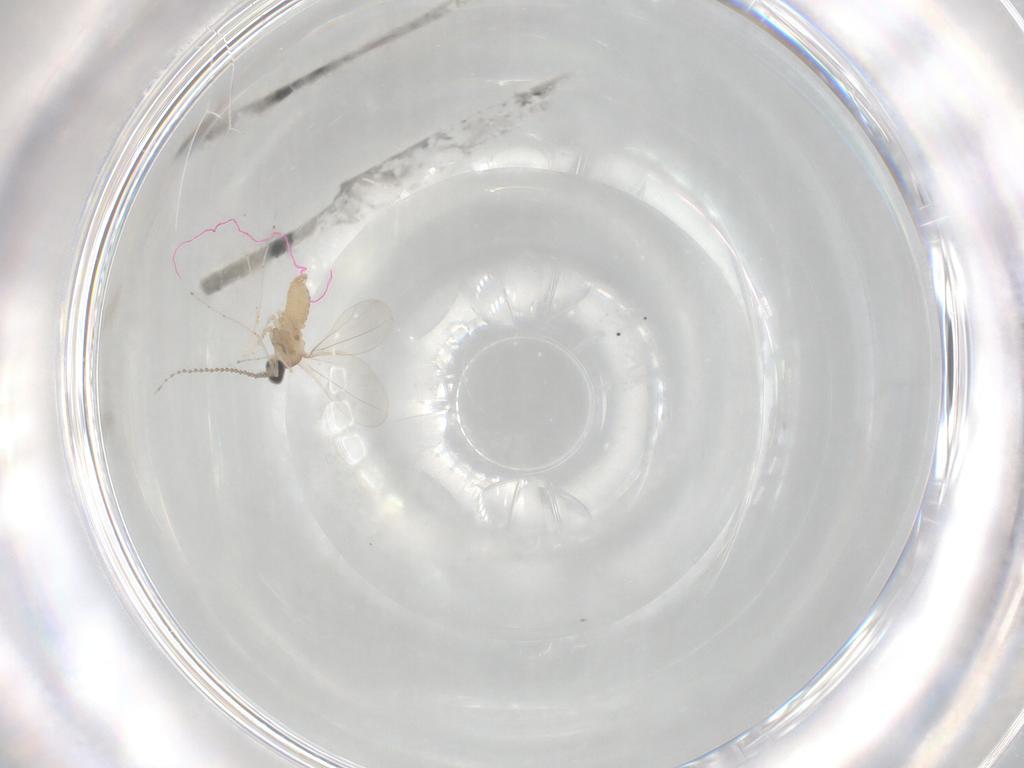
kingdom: Animalia
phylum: Arthropoda
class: Insecta
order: Diptera
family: Cecidomyiidae
